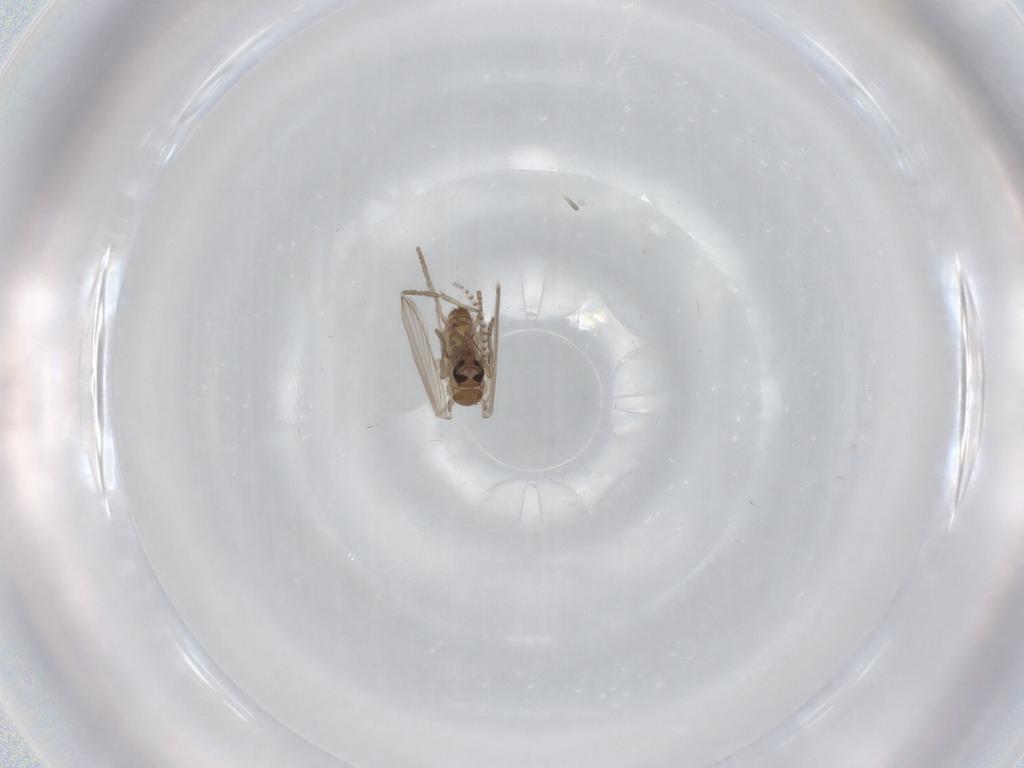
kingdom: Animalia
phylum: Arthropoda
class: Insecta
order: Diptera
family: Psychodidae
